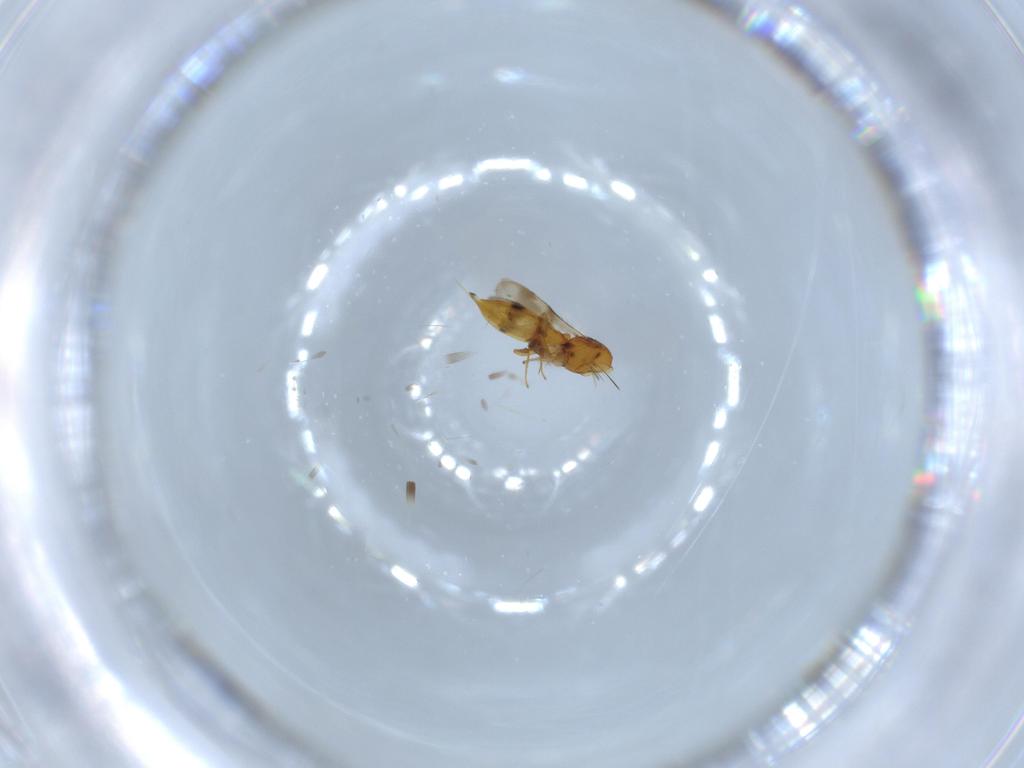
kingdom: Animalia
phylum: Arthropoda
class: Insecta
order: Hymenoptera
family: Scelionidae
